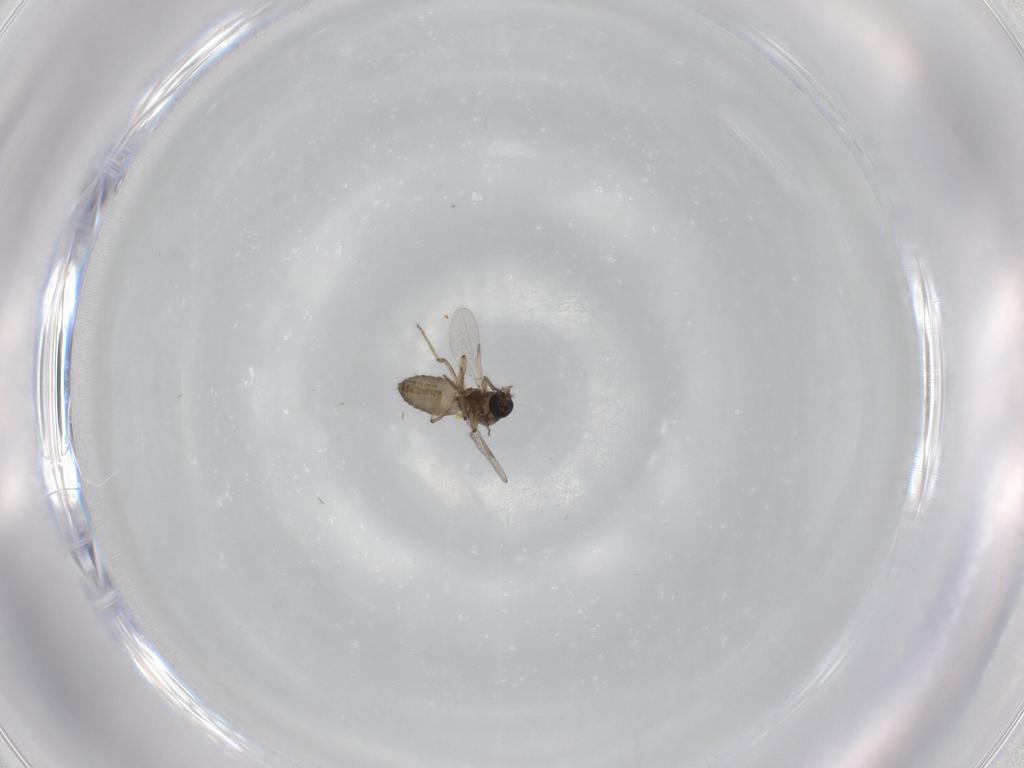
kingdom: Animalia
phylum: Arthropoda
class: Insecta
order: Diptera
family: Ceratopogonidae
